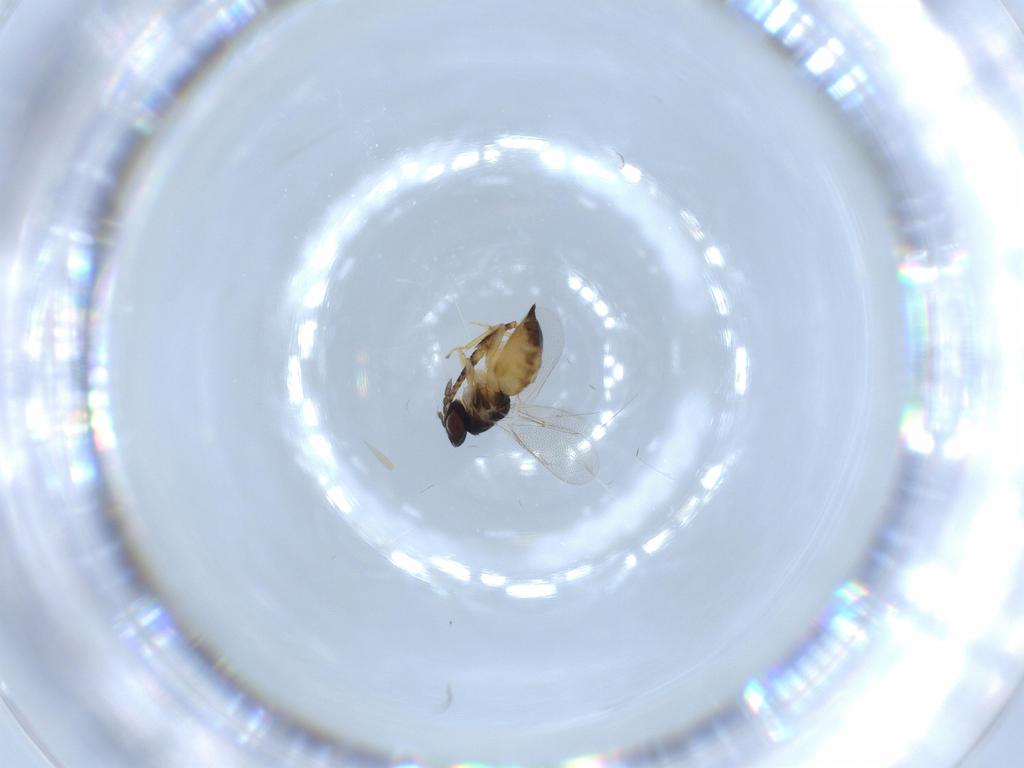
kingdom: Animalia
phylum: Arthropoda
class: Insecta
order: Hymenoptera
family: Eulophidae
